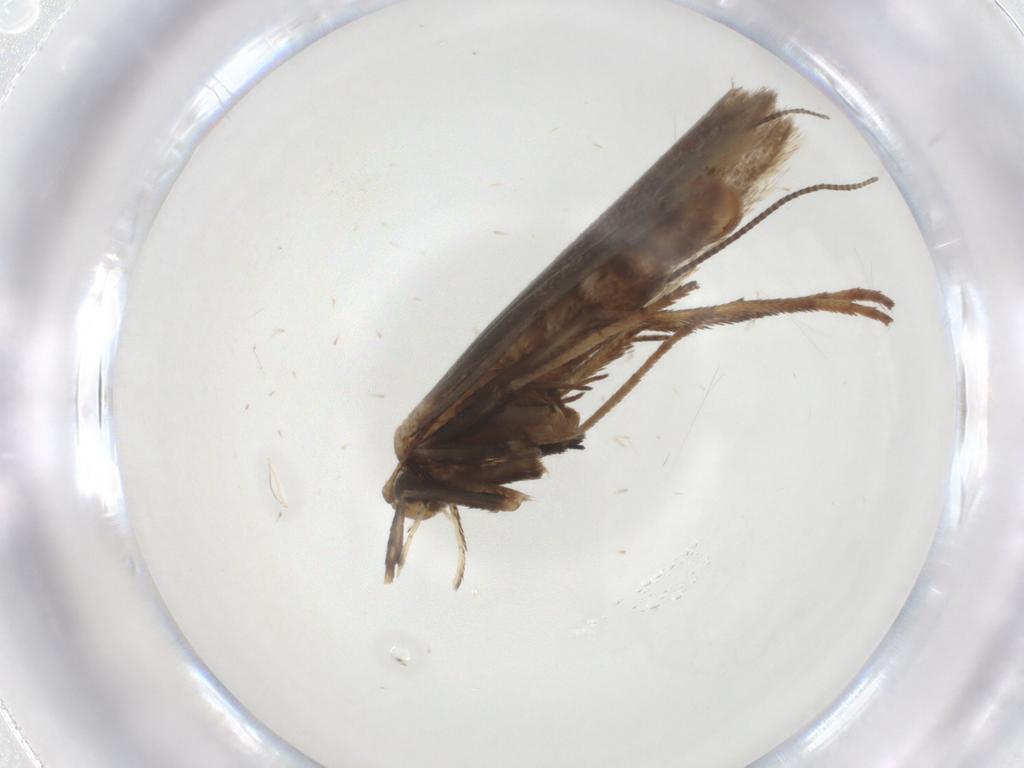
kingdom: Animalia
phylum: Arthropoda
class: Insecta
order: Lepidoptera
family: Gracillariidae
